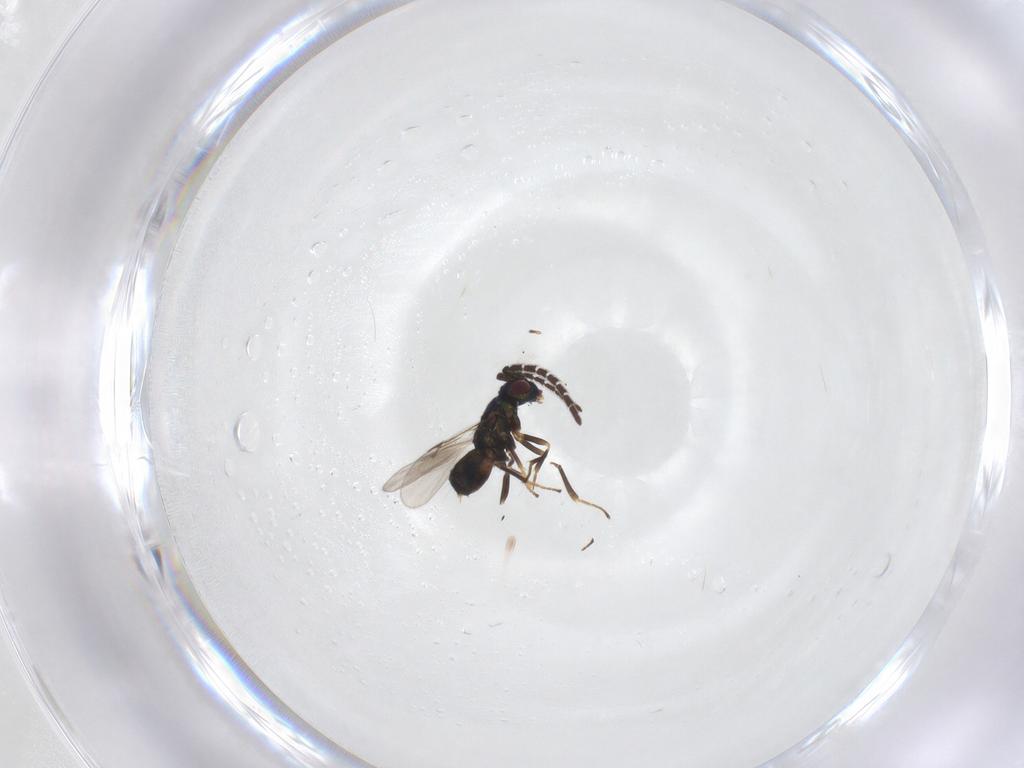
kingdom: Animalia
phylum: Arthropoda
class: Insecta
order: Hymenoptera
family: Encyrtidae
